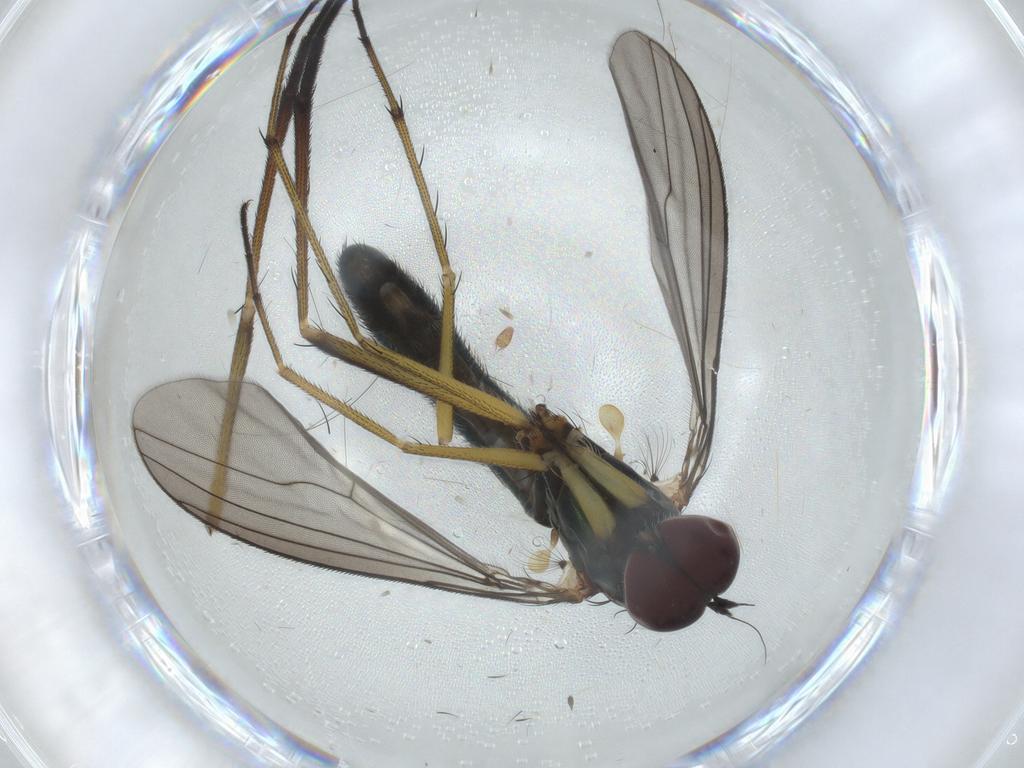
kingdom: Animalia
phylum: Arthropoda
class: Insecta
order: Diptera
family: Dolichopodidae
